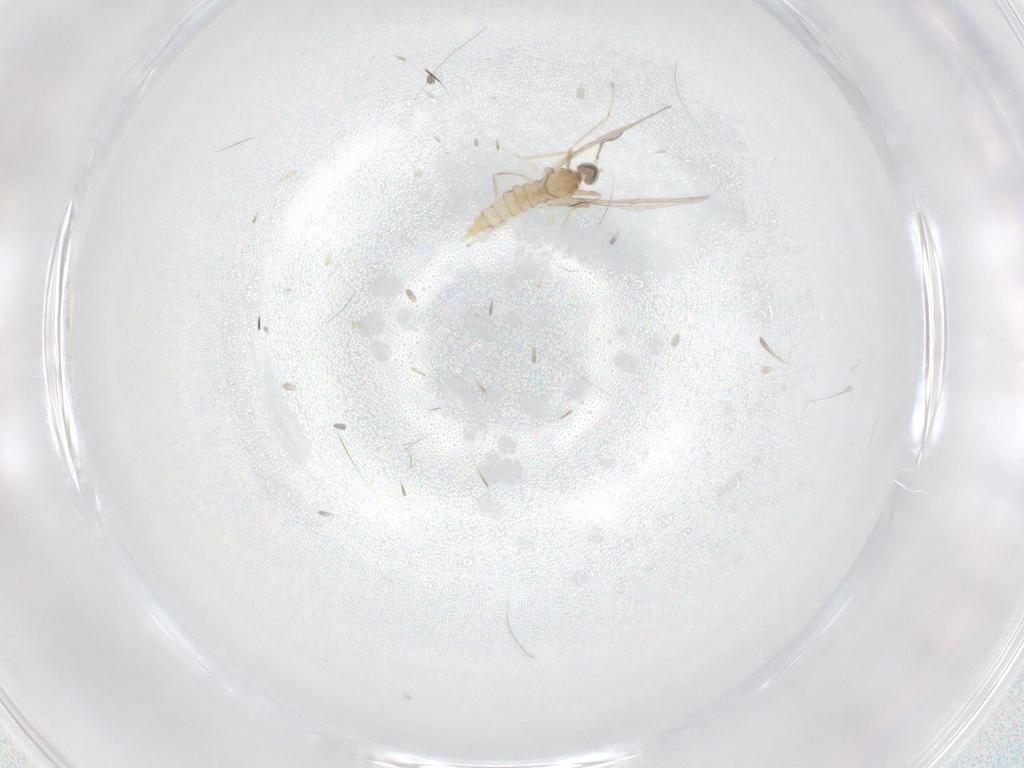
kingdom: Animalia
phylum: Arthropoda
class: Insecta
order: Diptera
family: Cecidomyiidae
